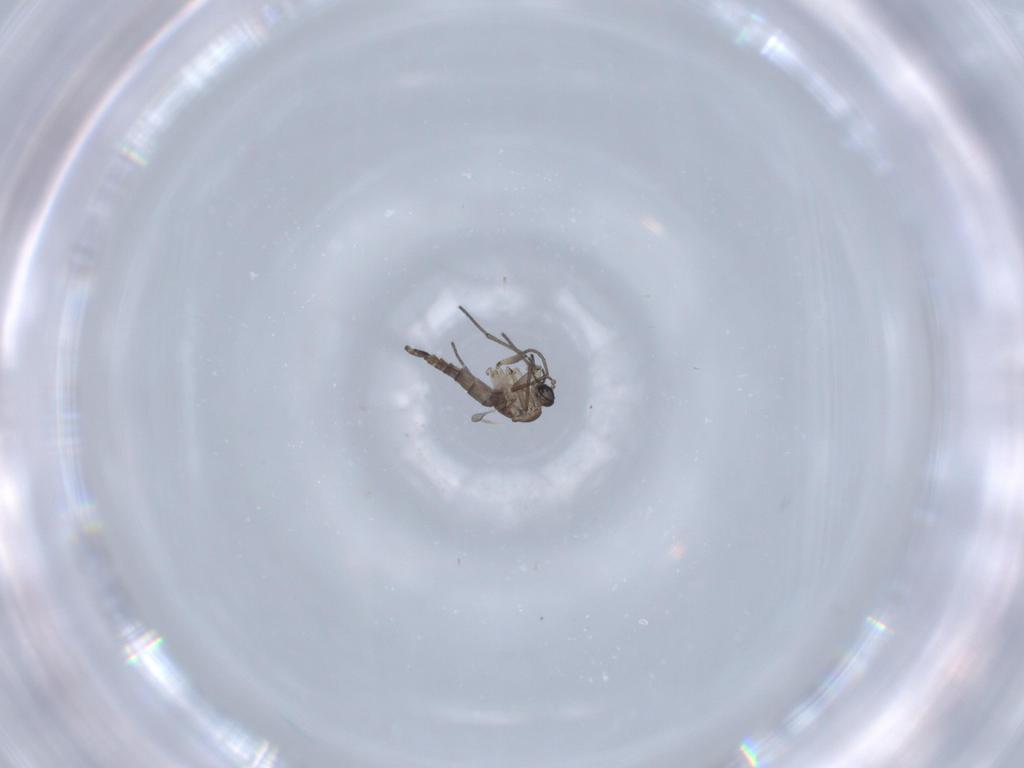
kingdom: Animalia
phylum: Arthropoda
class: Insecta
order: Diptera
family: Sciaridae
